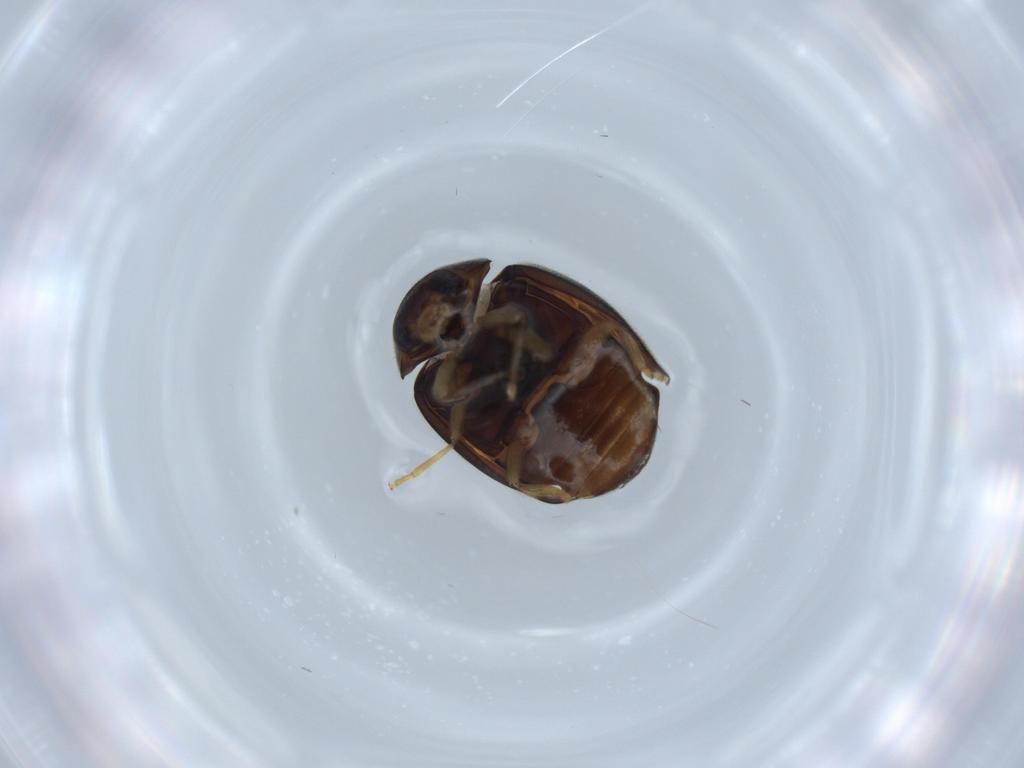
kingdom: Animalia
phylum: Arthropoda
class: Insecta
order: Coleoptera
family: Coccinellidae
